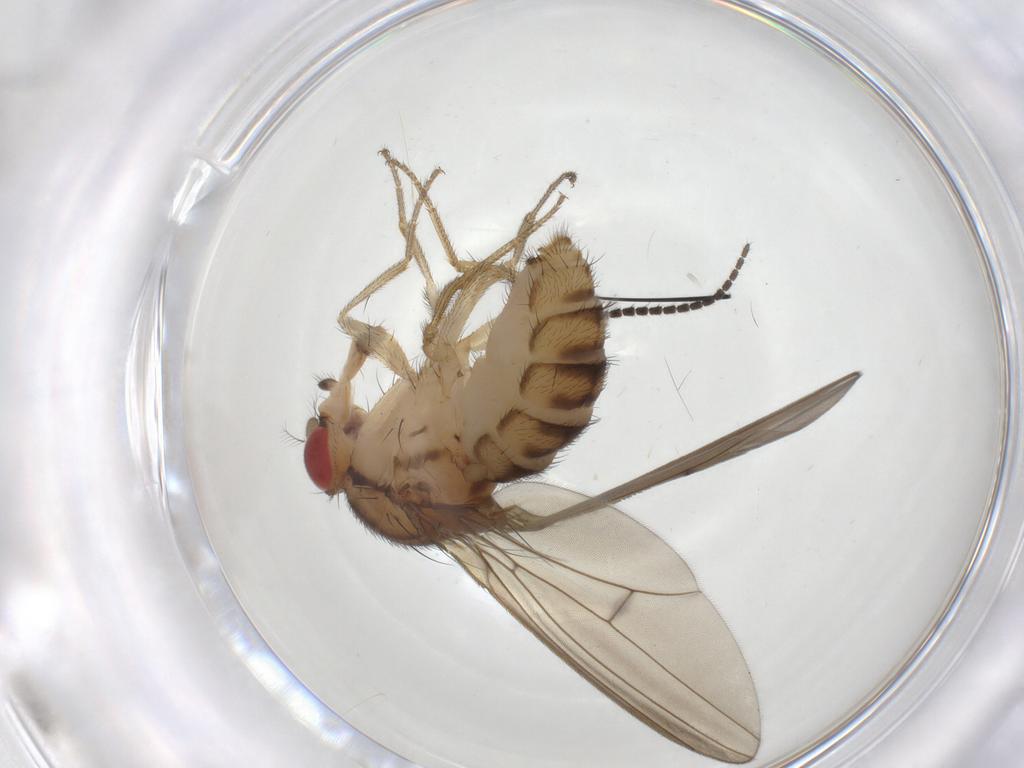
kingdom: Animalia
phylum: Arthropoda
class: Insecta
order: Diptera
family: Drosophilidae
